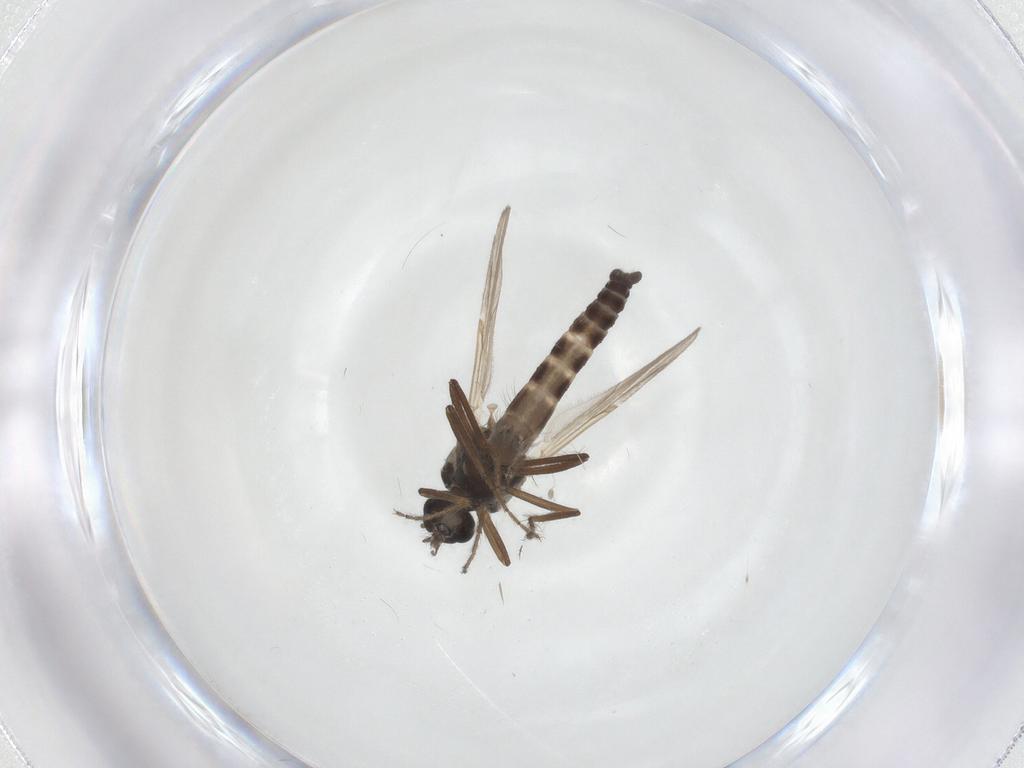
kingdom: Animalia
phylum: Arthropoda
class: Insecta
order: Diptera
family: Ceratopogonidae
